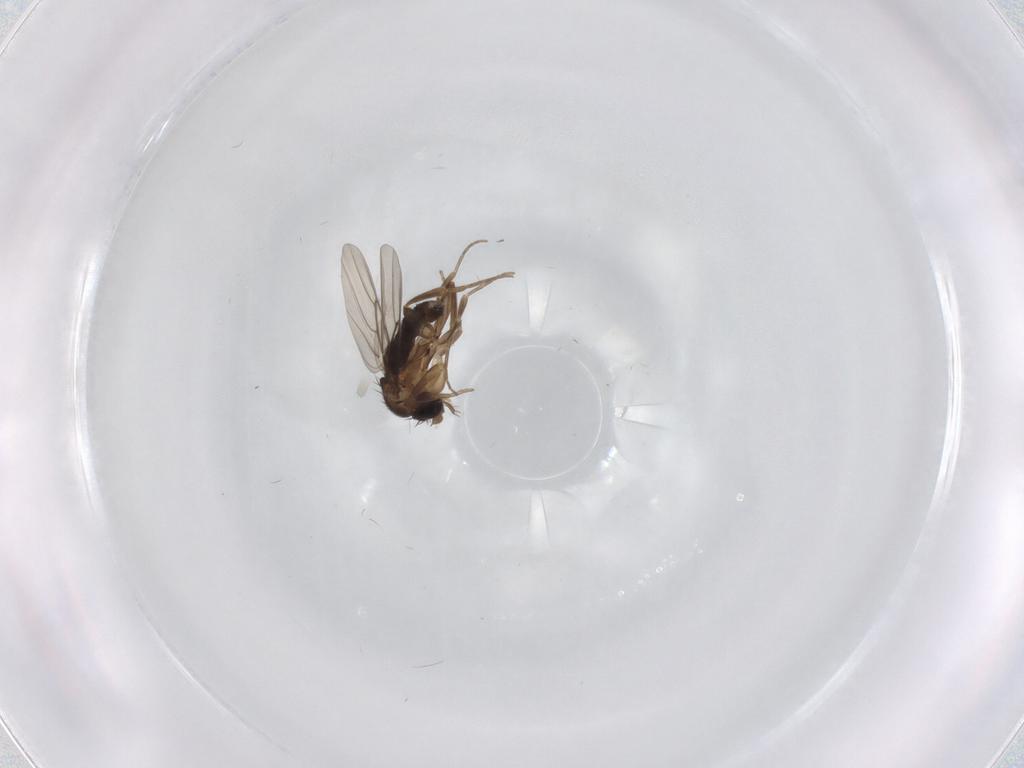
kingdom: Animalia
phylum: Arthropoda
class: Insecta
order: Diptera
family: Phoridae
